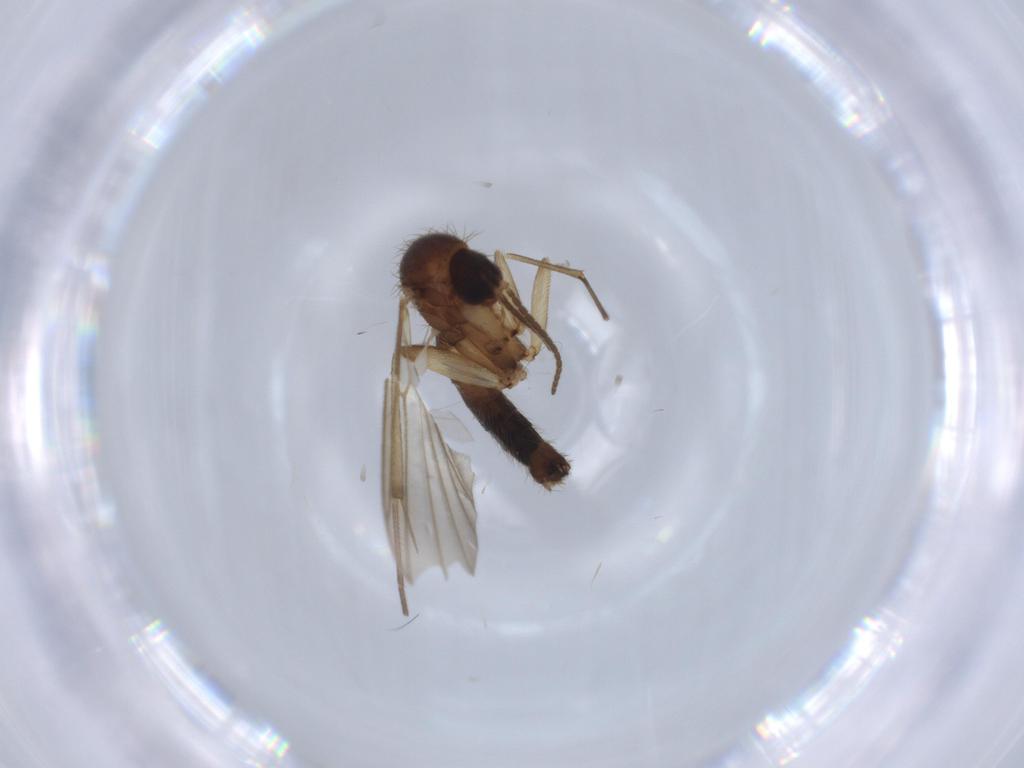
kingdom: Animalia
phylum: Arthropoda
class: Insecta
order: Diptera
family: Chloropidae
